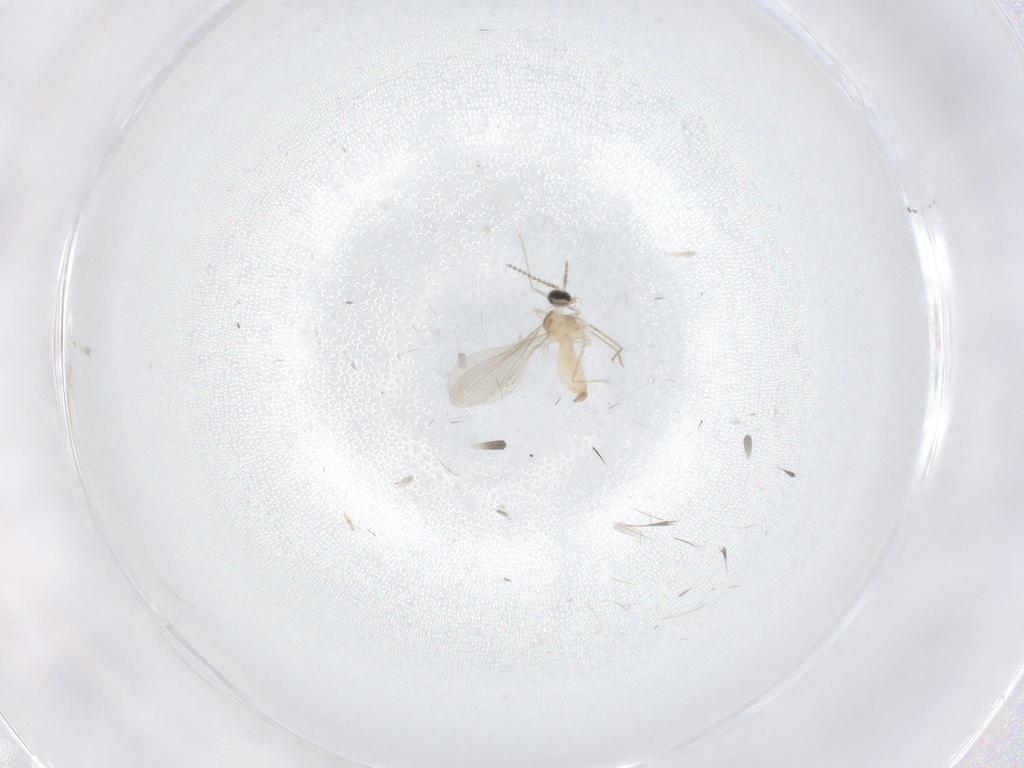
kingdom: Animalia
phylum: Arthropoda
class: Insecta
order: Diptera
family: Cecidomyiidae
